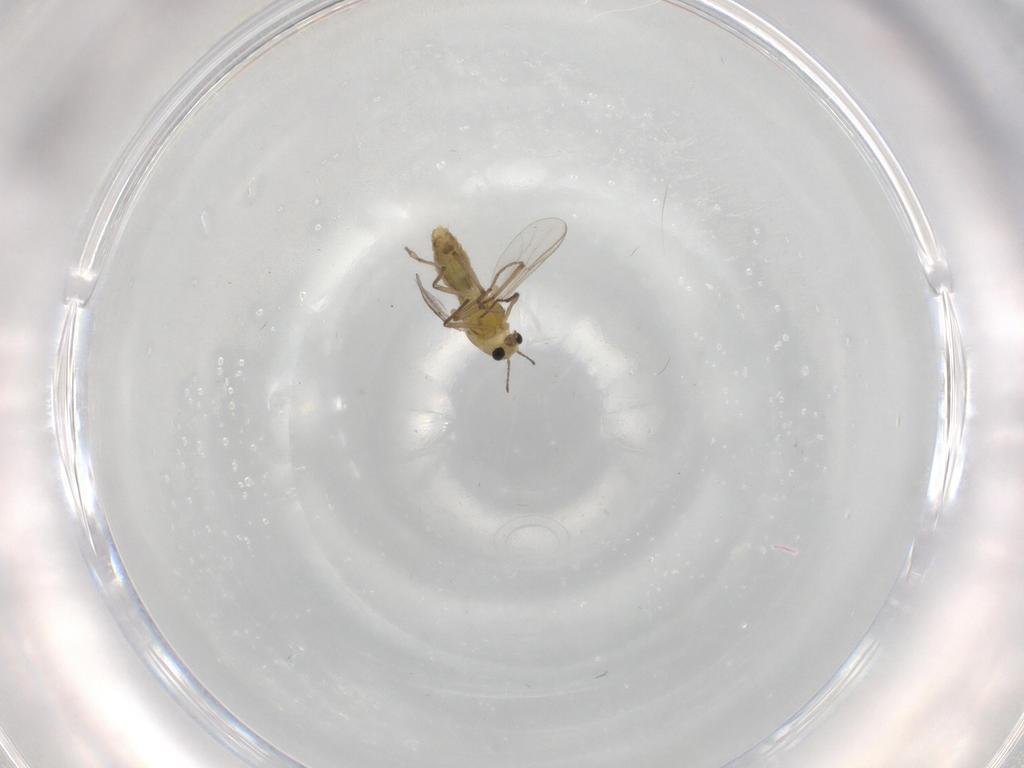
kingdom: Animalia
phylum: Arthropoda
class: Insecta
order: Diptera
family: Chironomidae
